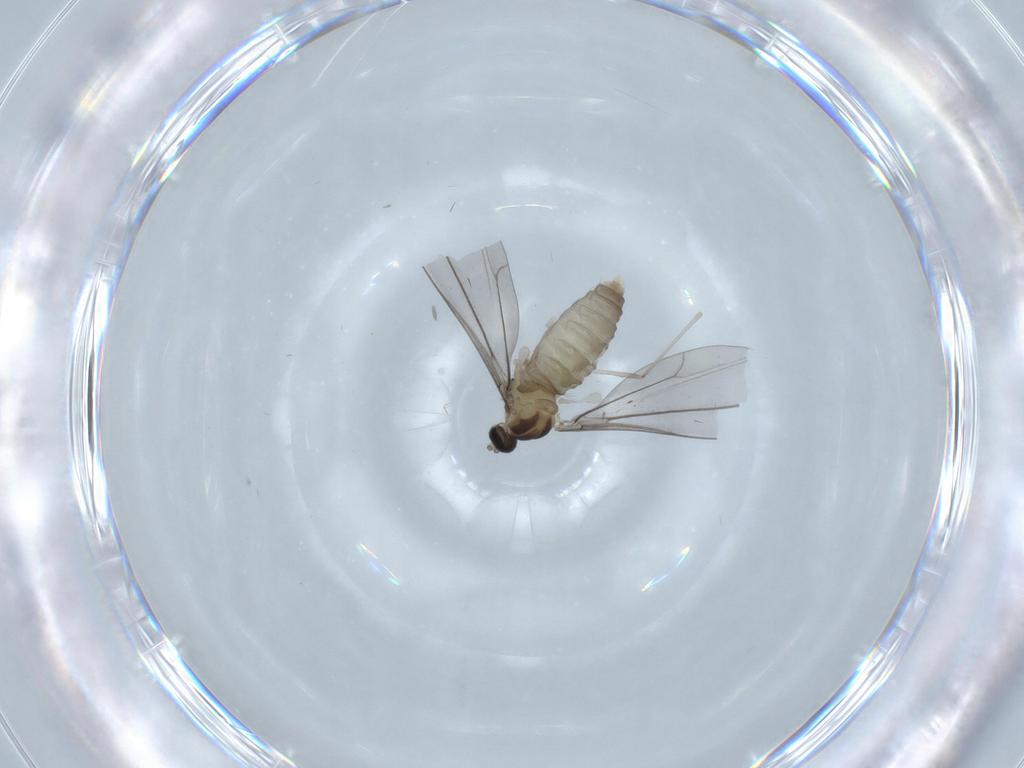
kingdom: Animalia
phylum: Arthropoda
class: Insecta
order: Diptera
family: Cecidomyiidae
